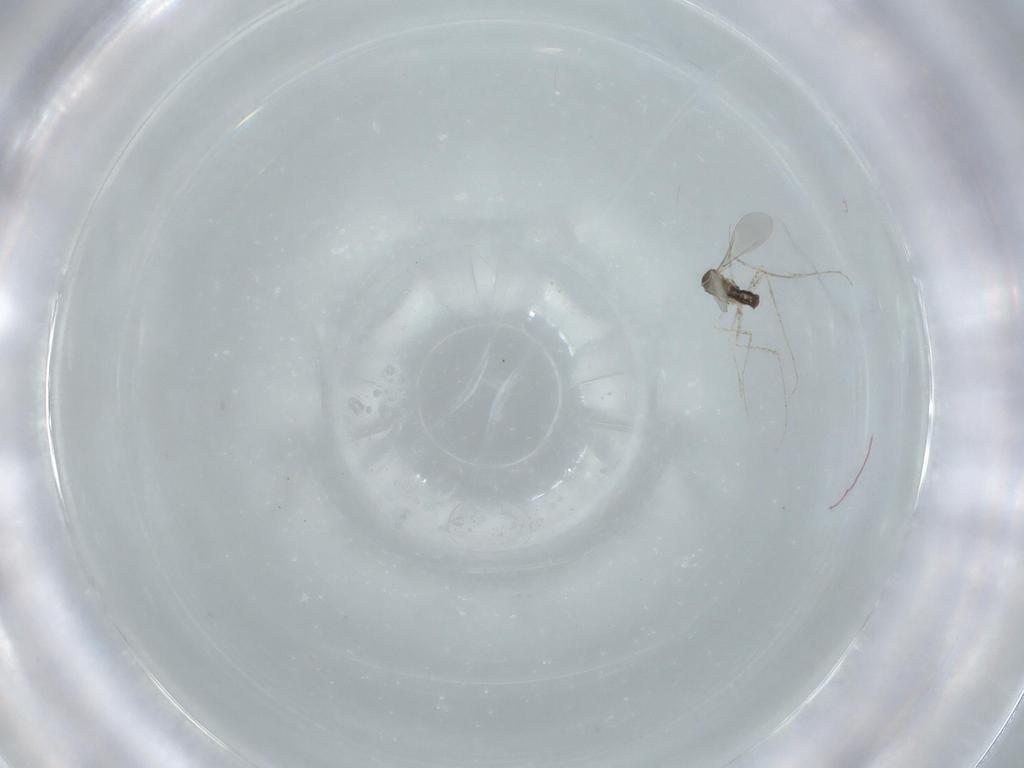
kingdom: Animalia
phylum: Arthropoda
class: Insecta
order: Diptera
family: Cecidomyiidae
